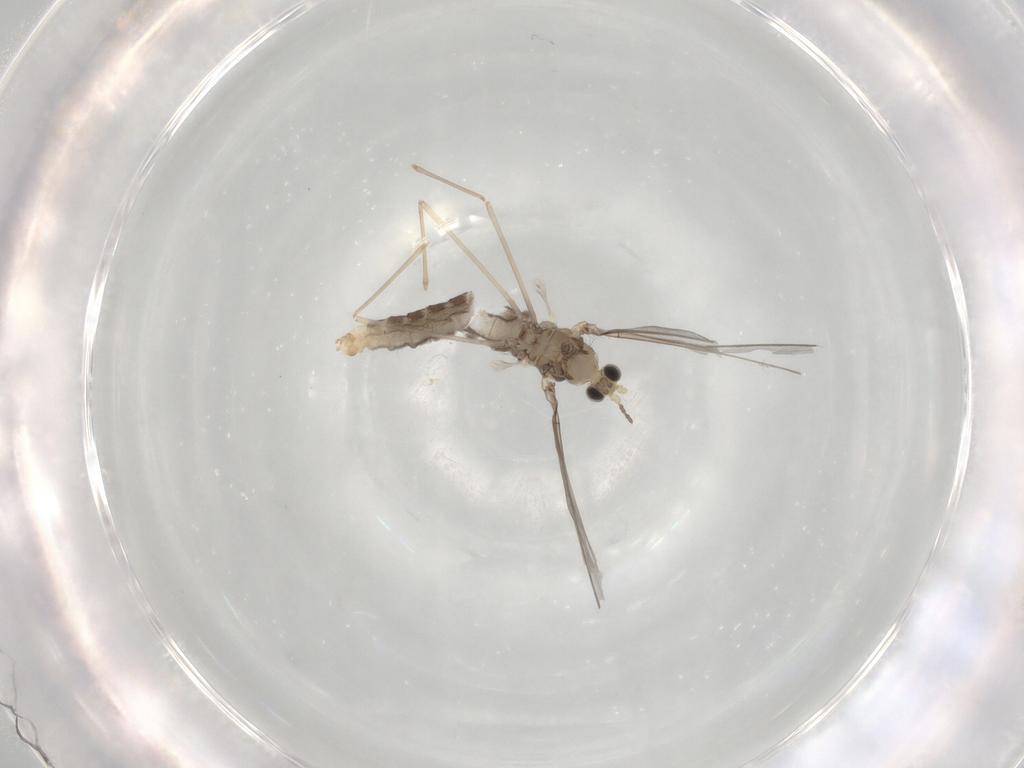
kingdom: Animalia
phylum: Arthropoda
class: Insecta
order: Diptera
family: Cecidomyiidae
